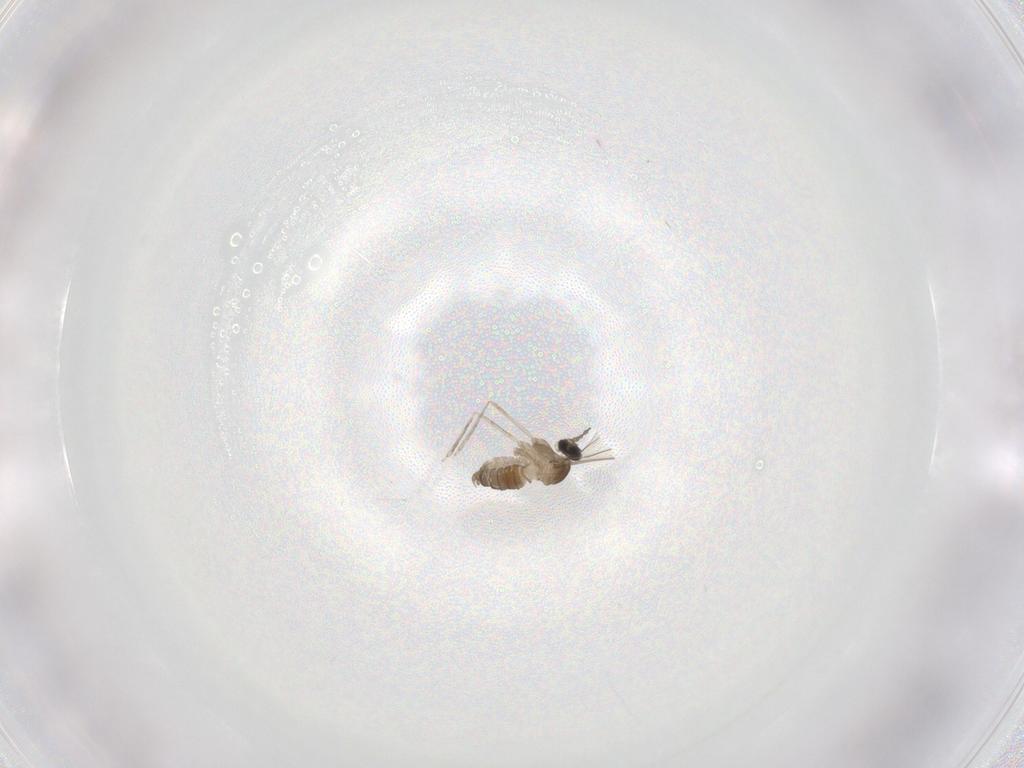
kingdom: Animalia
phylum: Arthropoda
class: Insecta
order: Diptera
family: Cecidomyiidae
